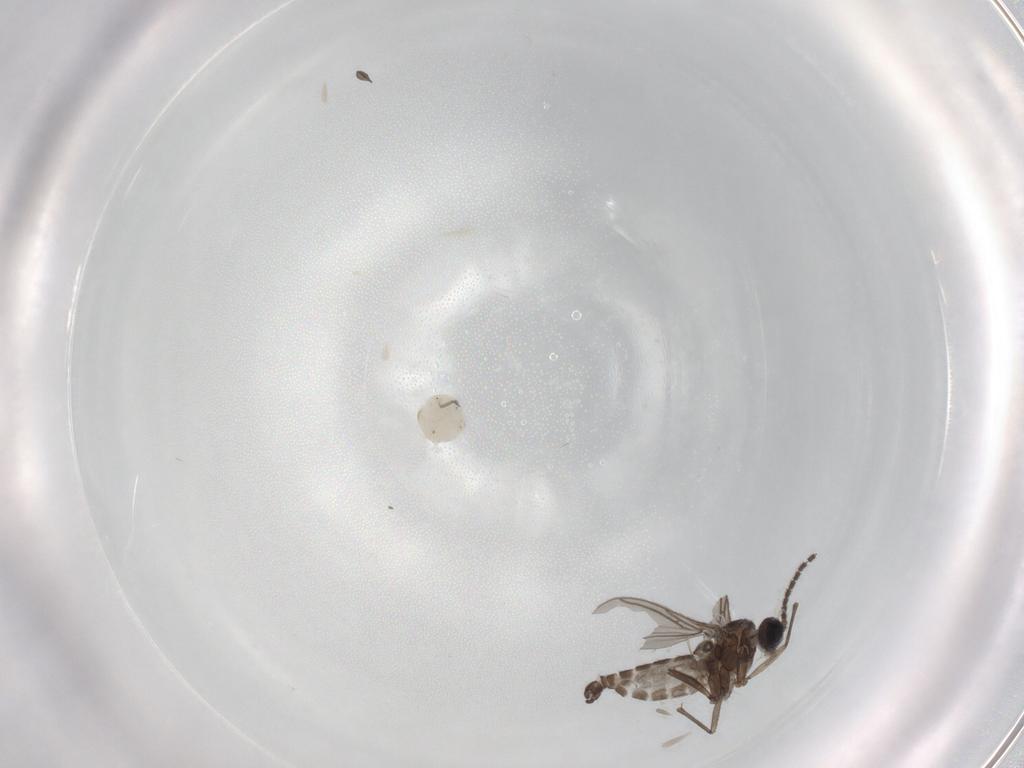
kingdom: Animalia
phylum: Arthropoda
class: Insecta
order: Diptera
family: Sciaridae
